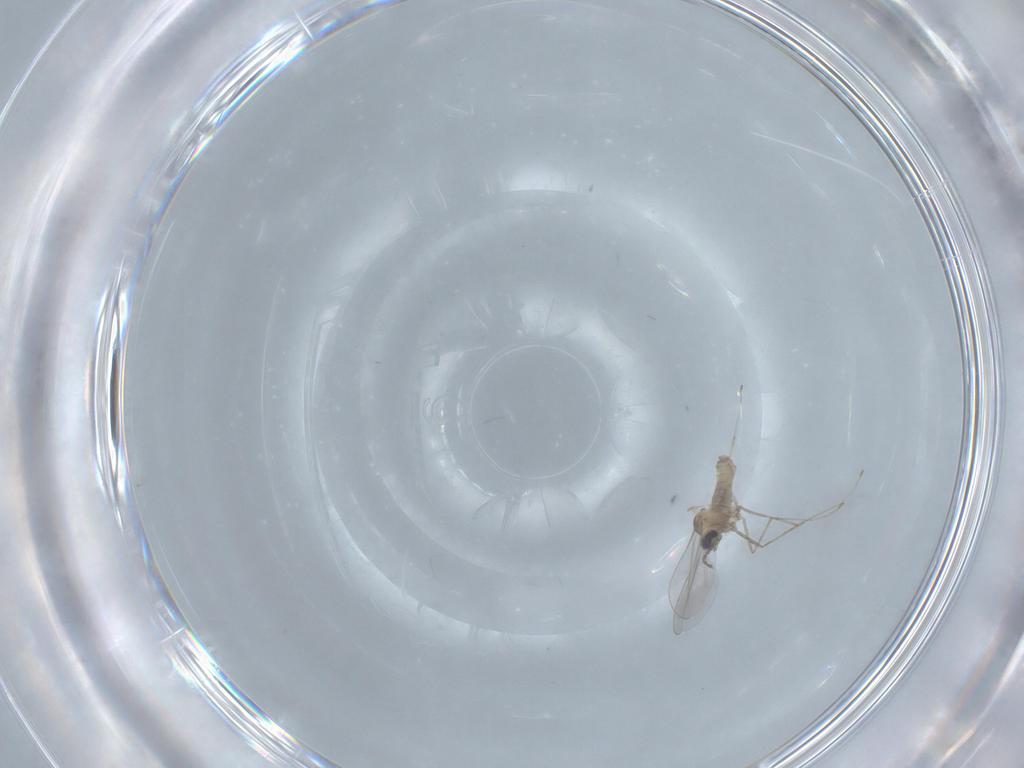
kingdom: Animalia
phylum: Arthropoda
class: Insecta
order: Diptera
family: Cecidomyiidae
